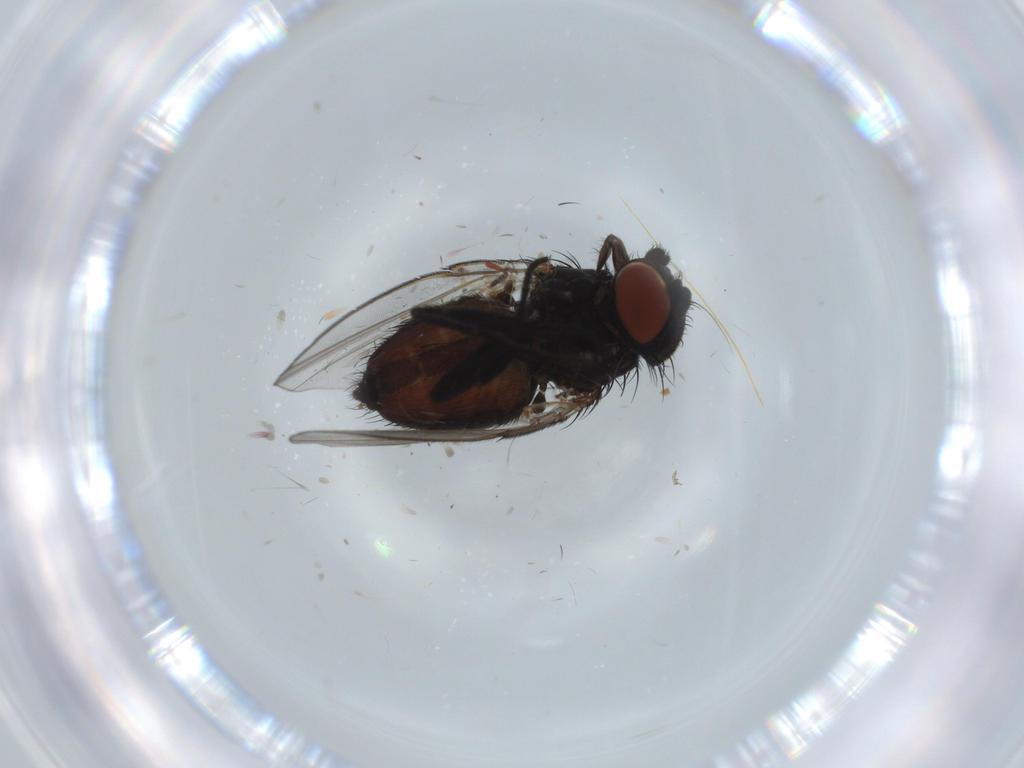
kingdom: Animalia
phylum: Arthropoda
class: Insecta
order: Diptera
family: Milichiidae
